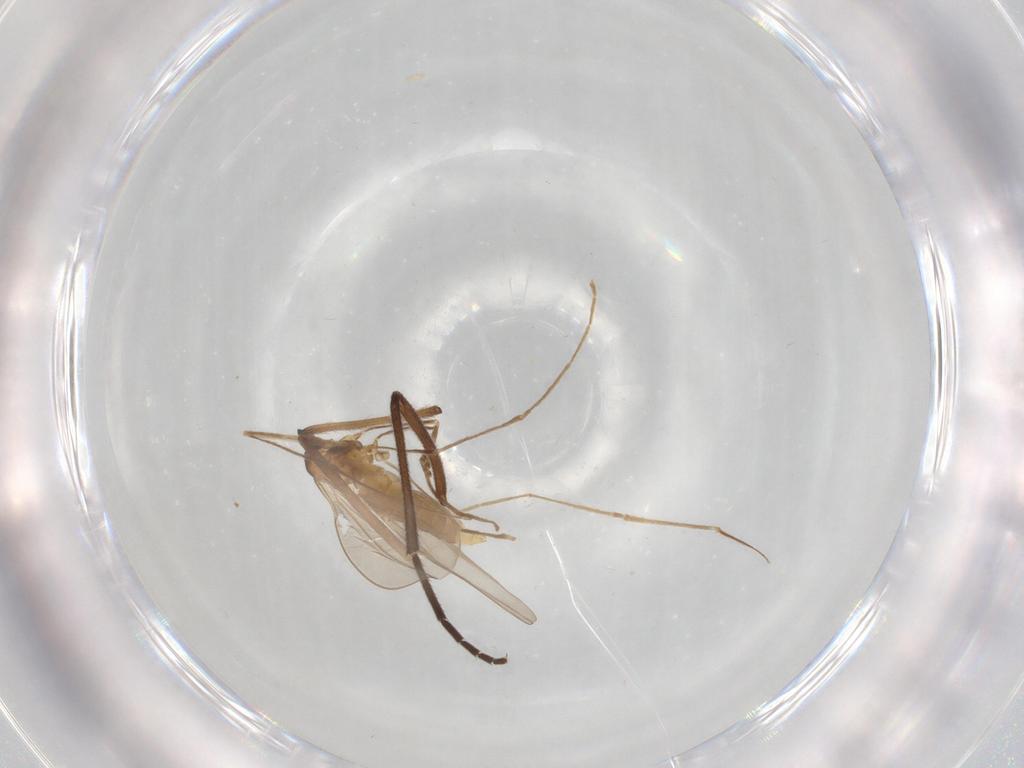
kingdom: Animalia
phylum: Arthropoda
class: Insecta
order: Diptera
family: Cecidomyiidae
